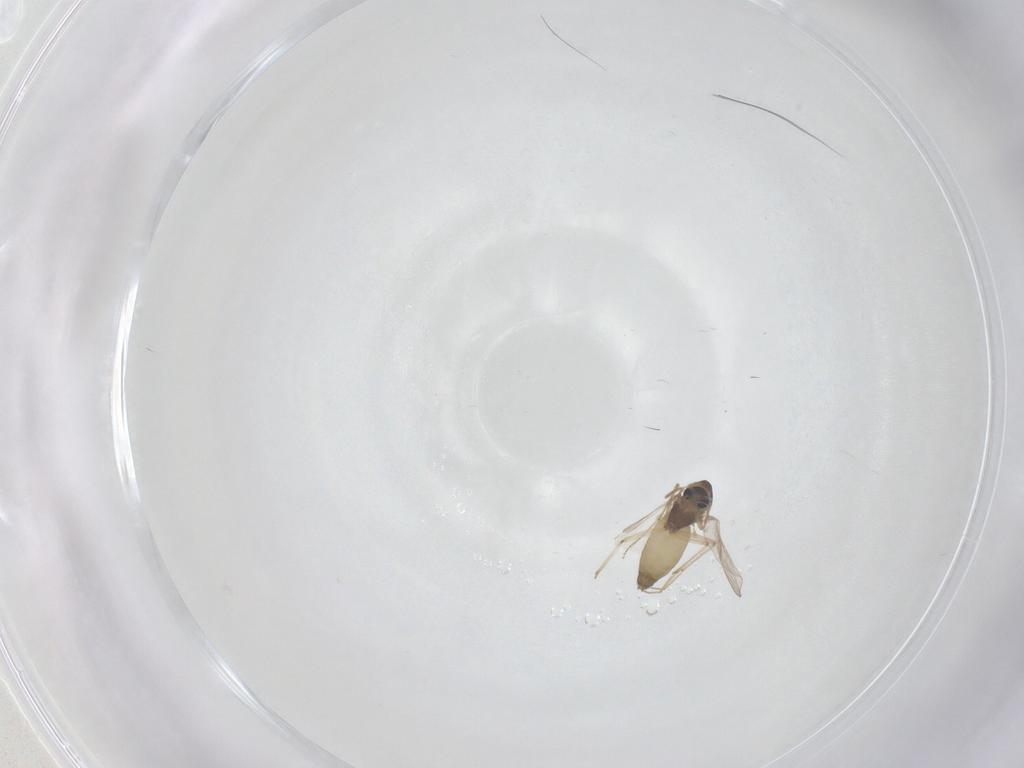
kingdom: Animalia
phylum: Arthropoda
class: Insecta
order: Diptera
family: Chironomidae
